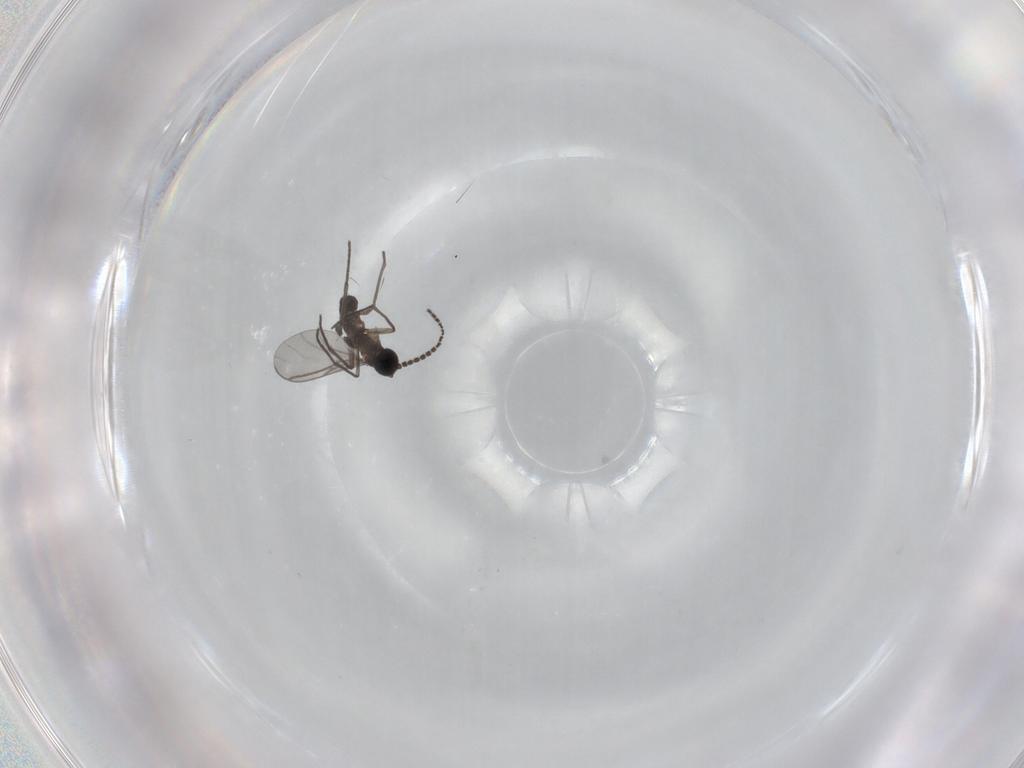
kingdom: Animalia
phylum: Arthropoda
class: Insecta
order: Diptera
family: Cecidomyiidae
